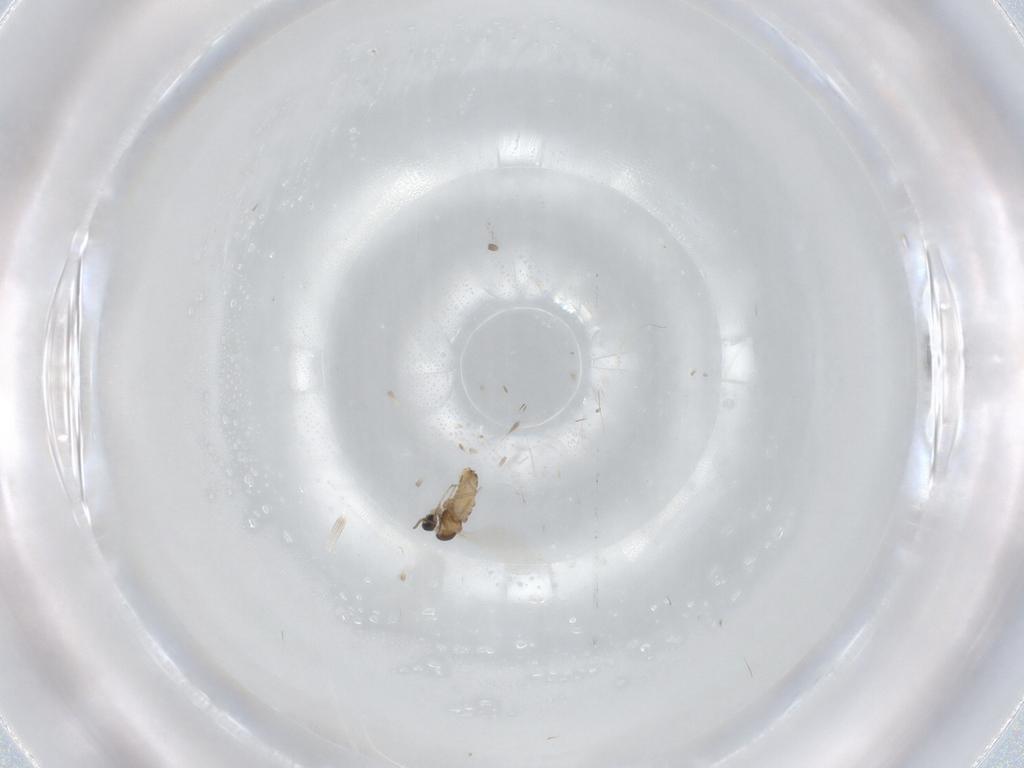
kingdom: Animalia
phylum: Arthropoda
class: Insecta
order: Diptera
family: Cecidomyiidae
